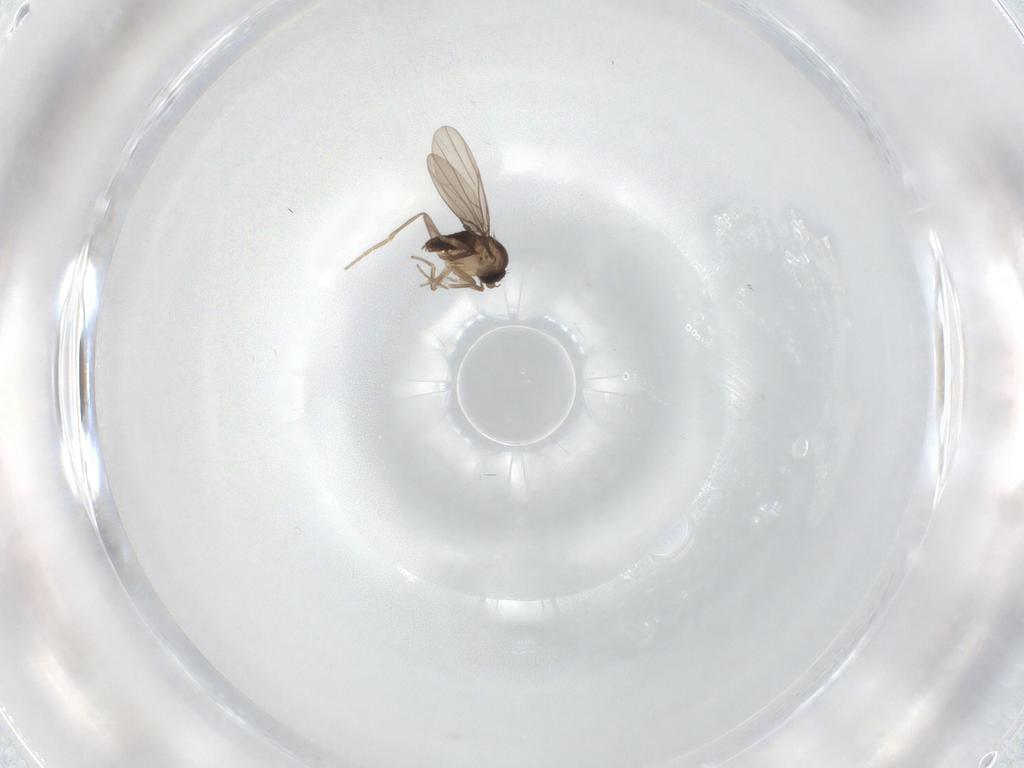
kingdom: Animalia
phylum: Arthropoda
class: Insecta
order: Diptera
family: Phoridae
